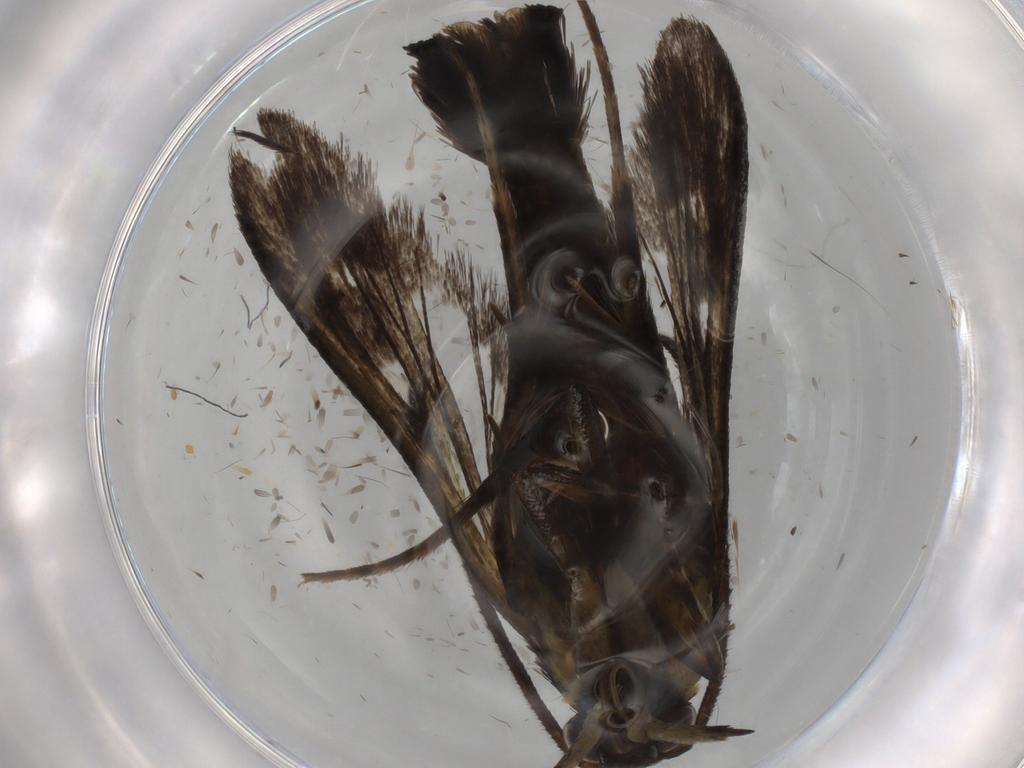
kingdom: Animalia
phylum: Arthropoda
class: Insecta
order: Lepidoptera
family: Sesiidae
